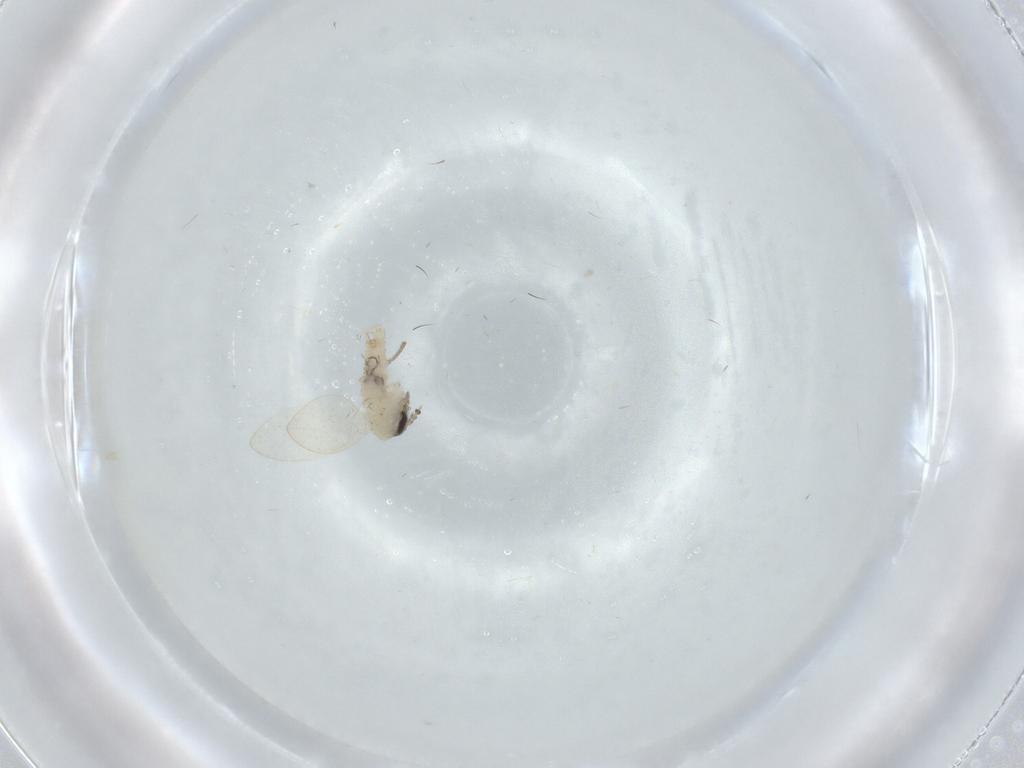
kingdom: Animalia
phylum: Arthropoda
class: Insecta
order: Diptera
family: Psychodidae
